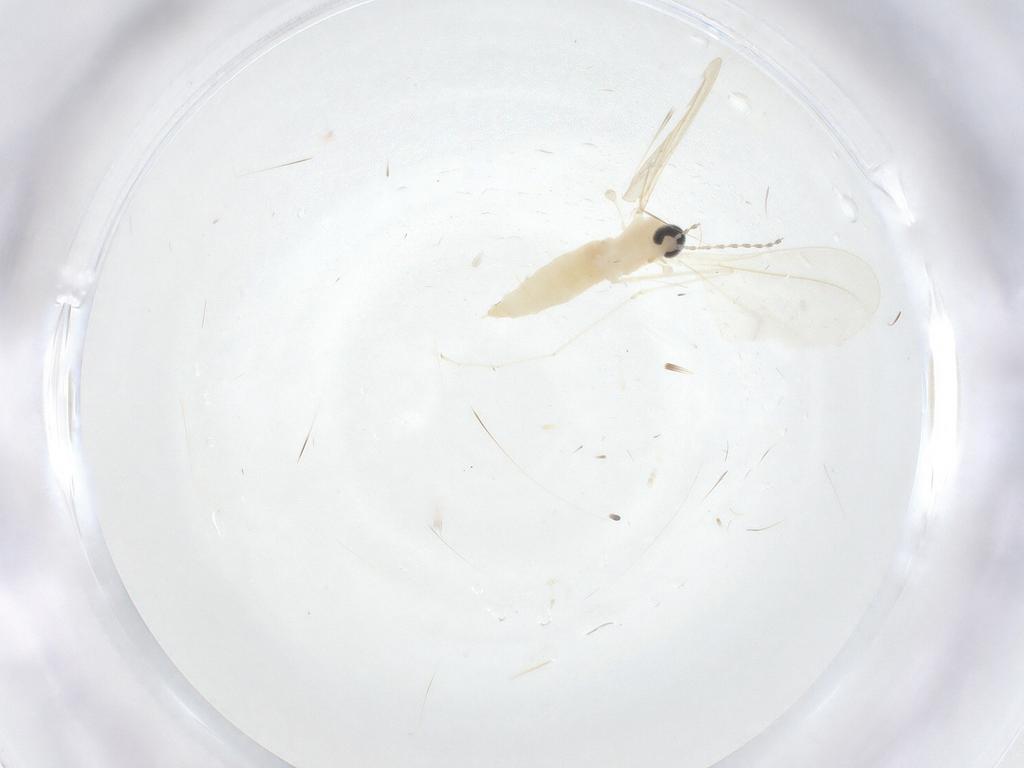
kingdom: Animalia
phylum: Arthropoda
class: Insecta
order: Diptera
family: Cecidomyiidae
